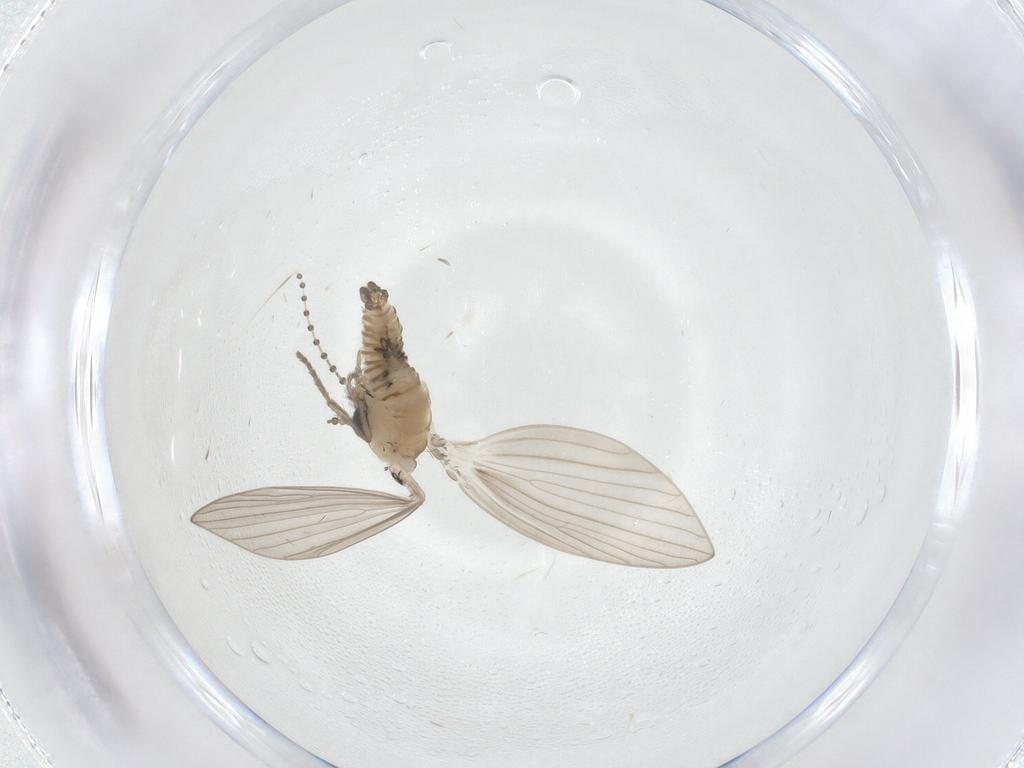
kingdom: Animalia
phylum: Arthropoda
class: Insecta
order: Diptera
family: Psychodidae
